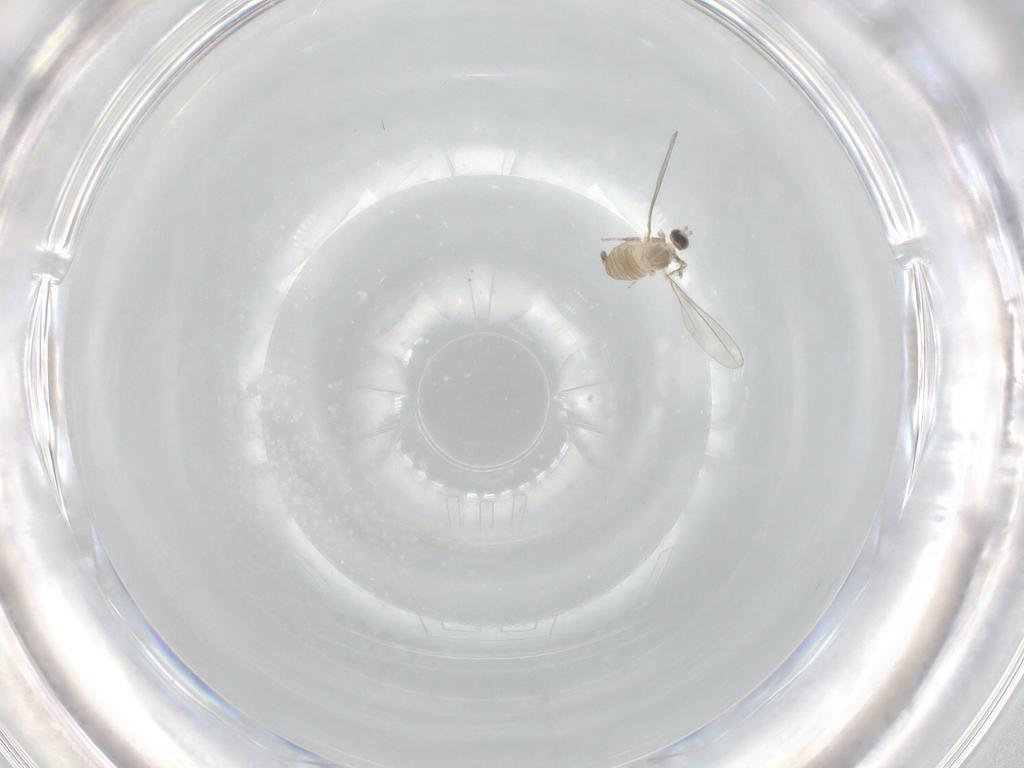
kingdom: Animalia
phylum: Arthropoda
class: Insecta
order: Diptera
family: Cecidomyiidae
